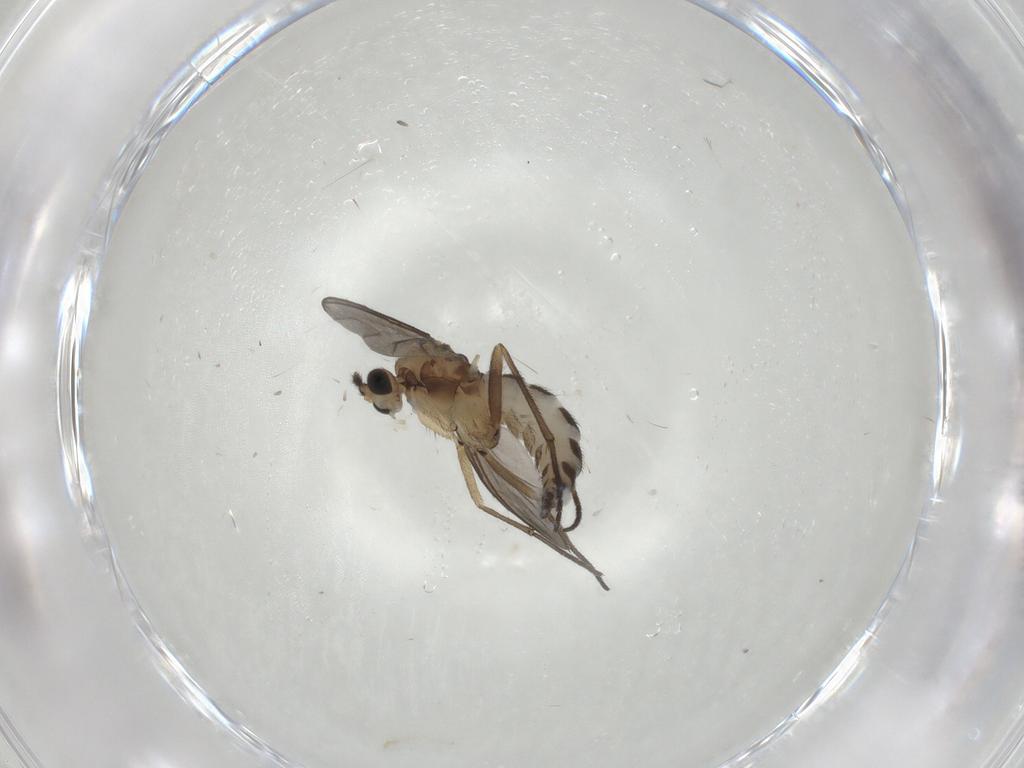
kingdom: Animalia
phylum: Arthropoda
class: Insecta
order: Diptera
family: Sciaridae
